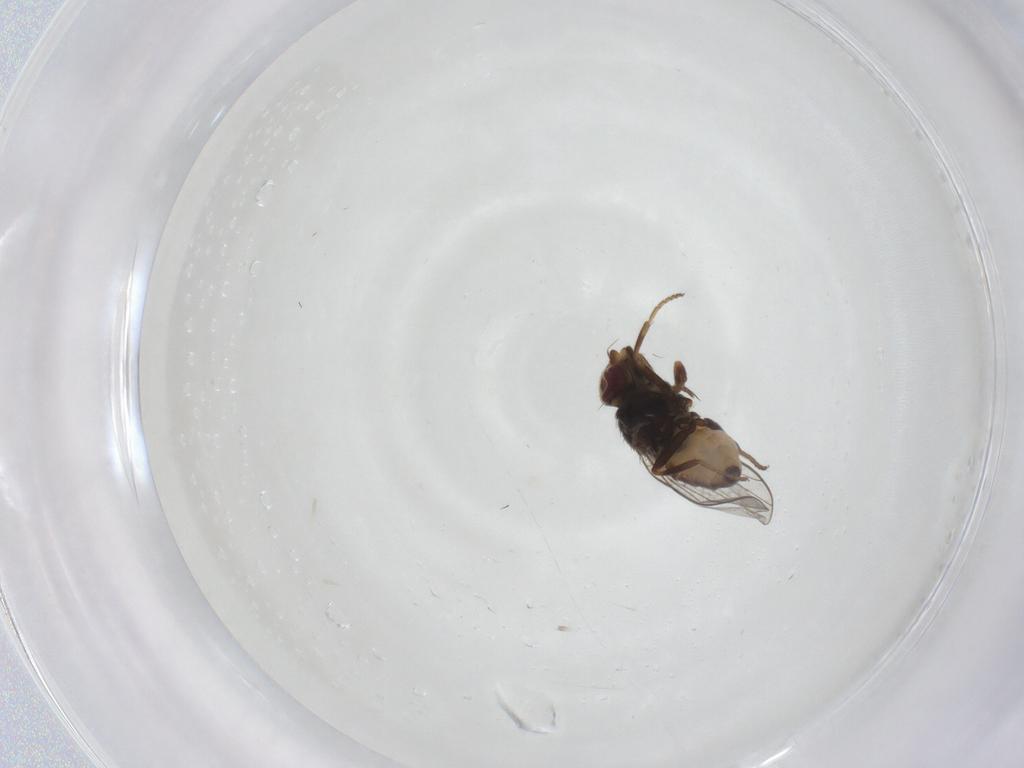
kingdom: Animalia
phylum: Arthropoda
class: Insecta
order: Diptera
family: Chloropidae
